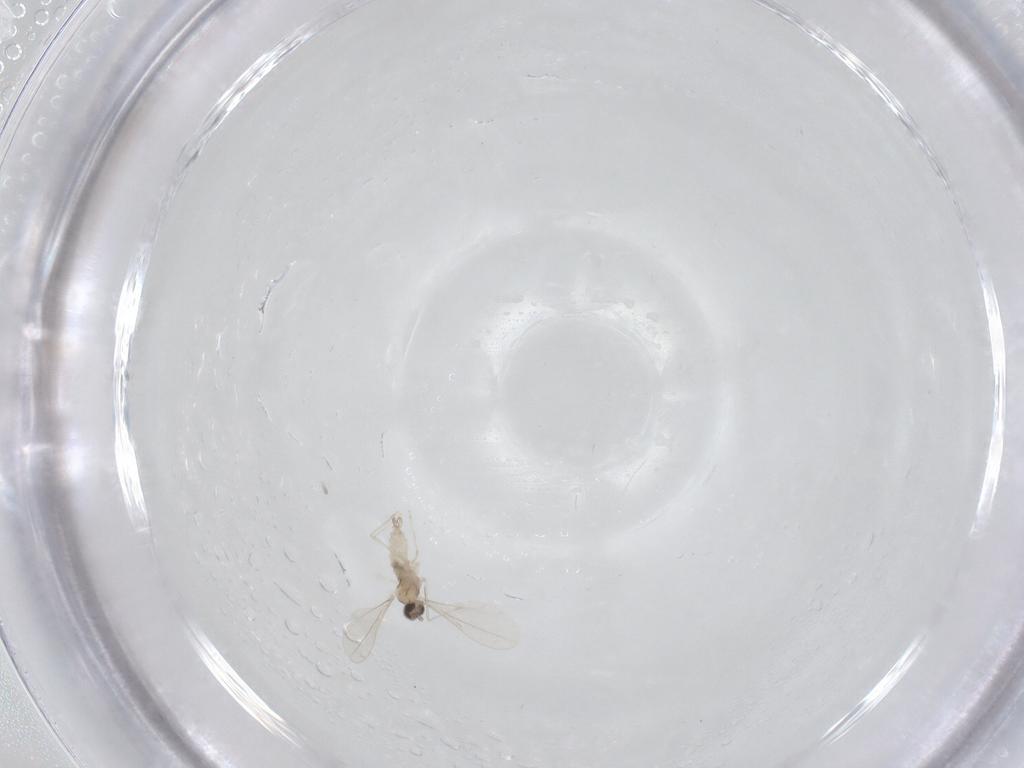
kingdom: Animalia
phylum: Arthropoda
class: Insecta
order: Diptera
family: Cecidomyiidae
